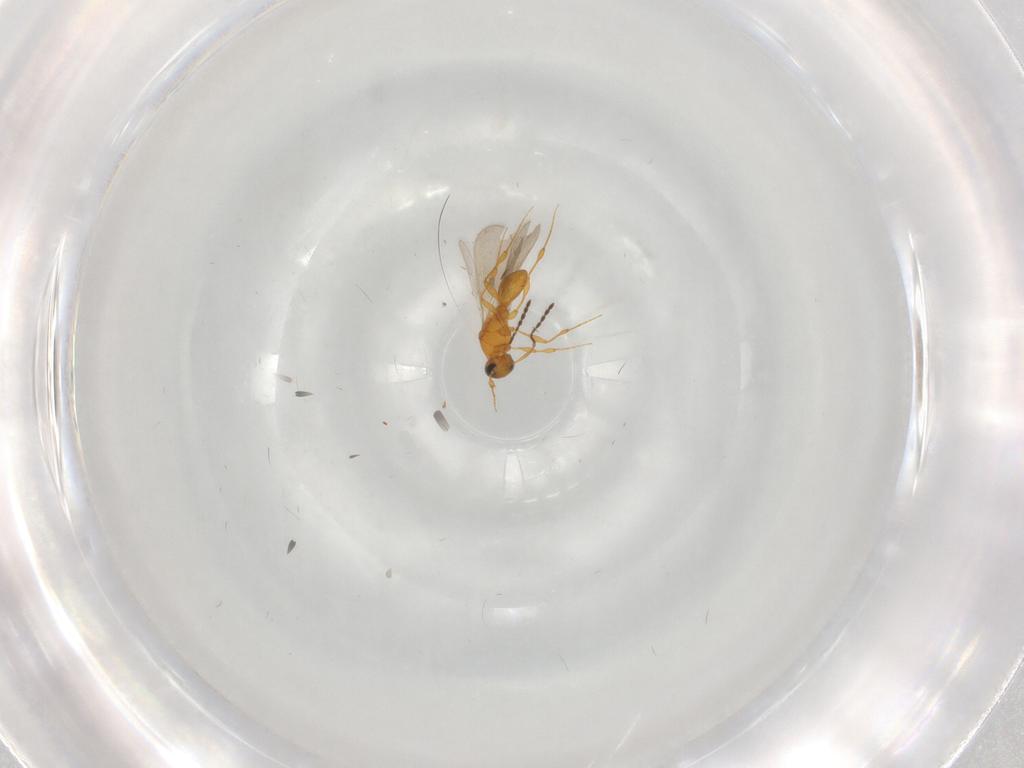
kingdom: Animalia
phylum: Arthropoda
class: Insecta
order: Hymenoptera
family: Platygastridae
